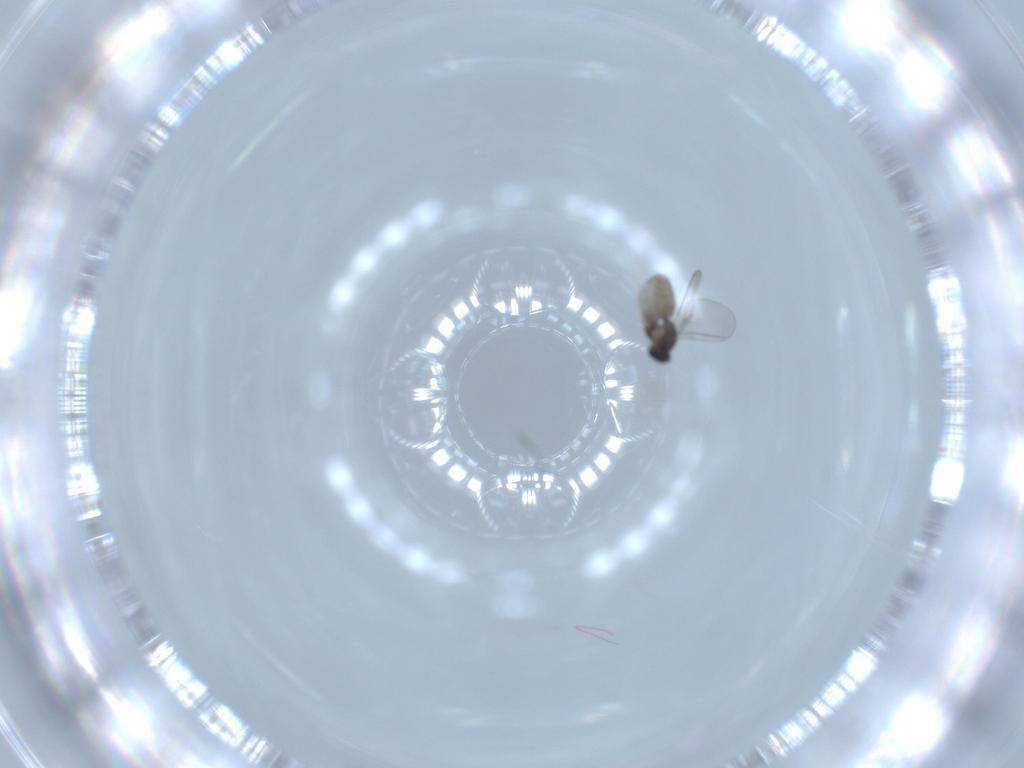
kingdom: Animalia
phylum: Arthropoda
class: Insecta
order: Diptera
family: Cecidomyiidae
